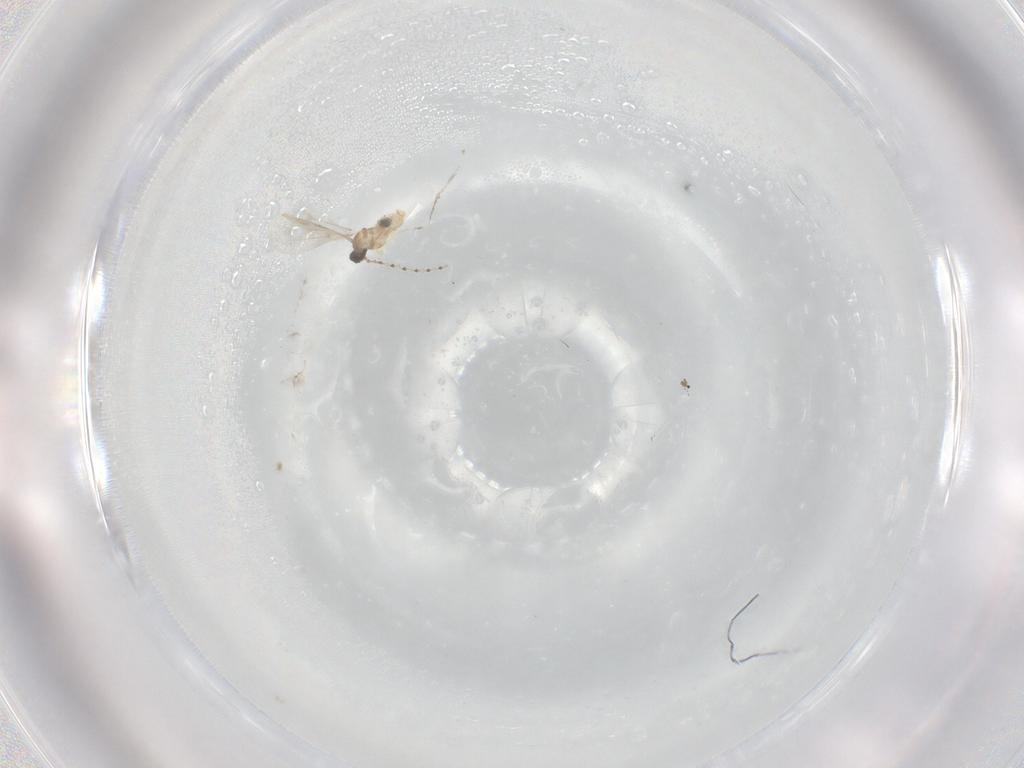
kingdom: Animalia
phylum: Arthropoda
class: Insecta
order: Diptera
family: Cecidomyiidae
